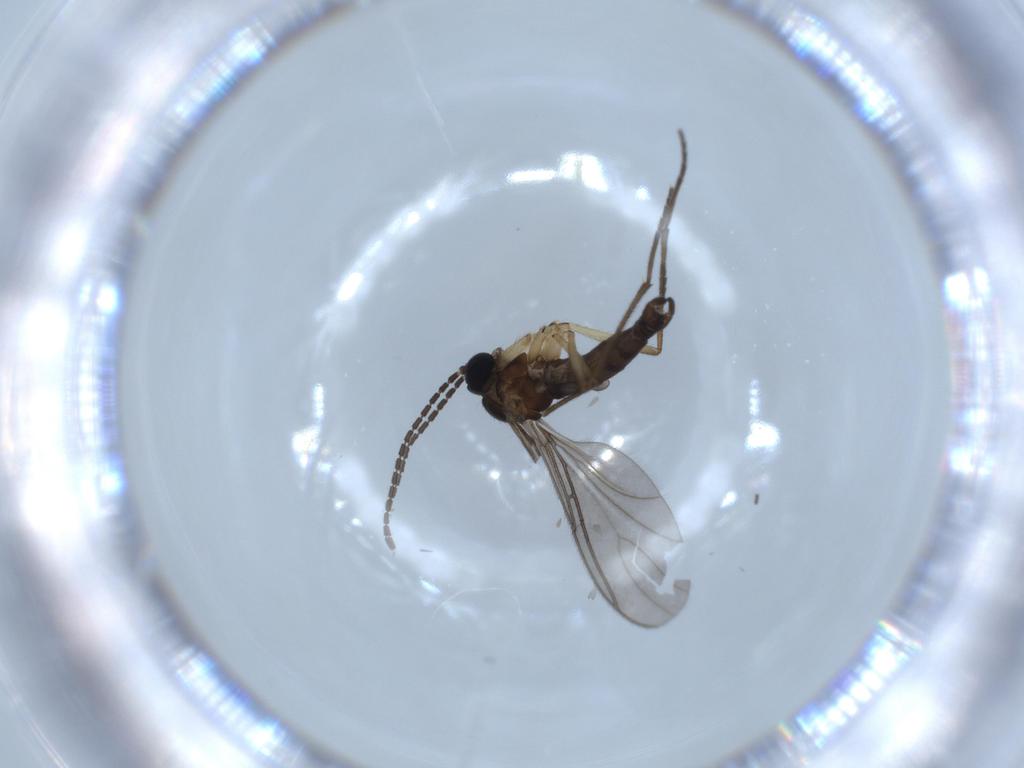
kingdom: Animalia
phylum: Arthropoda
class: Insecta
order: Diptera
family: Sciaridae
